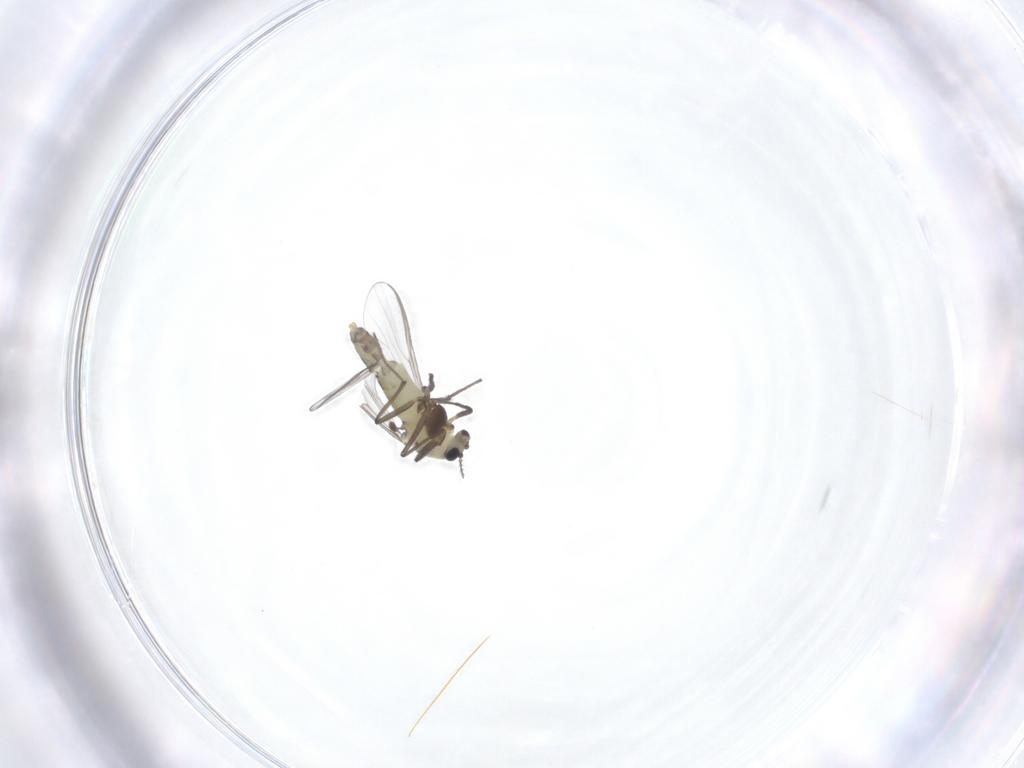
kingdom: Animalia
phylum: Arthropoda
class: Insecta
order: Diptera
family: Chironomidae
